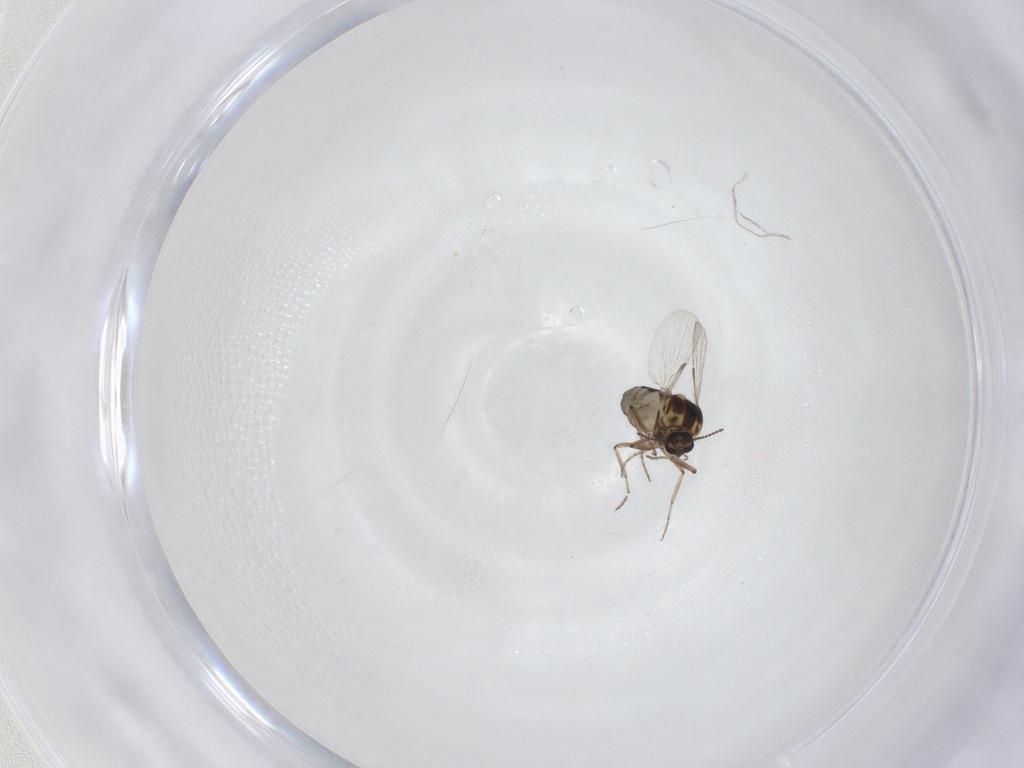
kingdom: Animalia
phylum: Arthropoda
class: Insecta
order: Diptera
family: Ceratopogonidae
